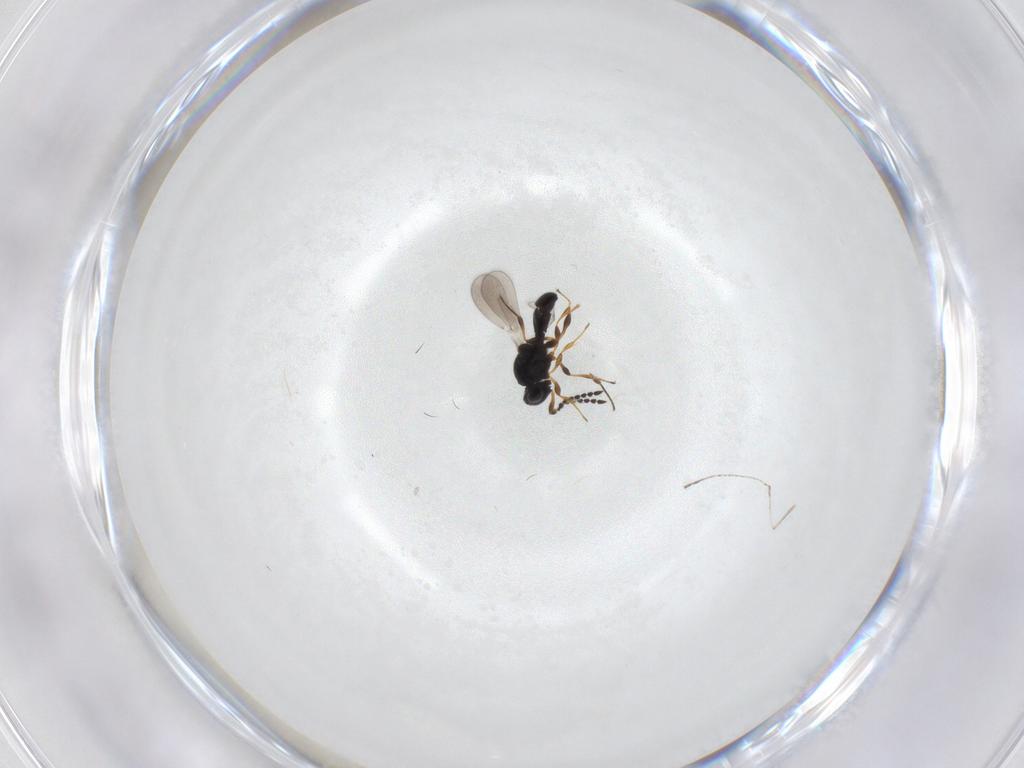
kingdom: Animalia
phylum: Arthropoda
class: Insecta
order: Hymenoptera
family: Platygastridae
